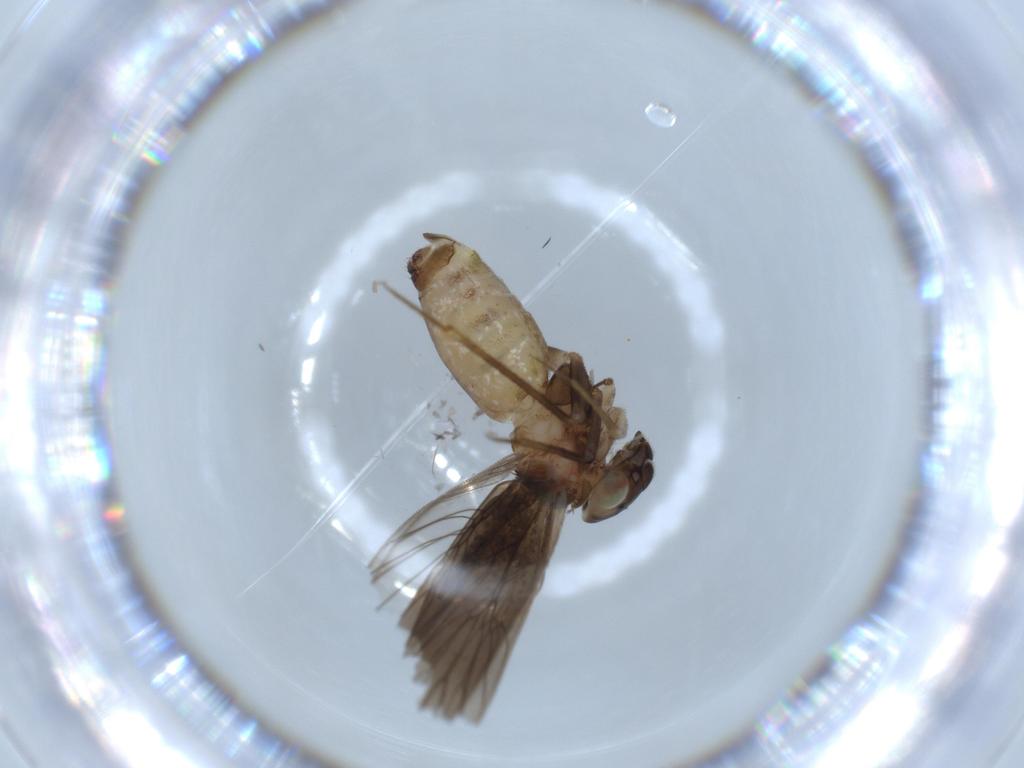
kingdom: Animalia
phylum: Arthropoda
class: Insecta
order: Psocodea
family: Lepidopsocidae
